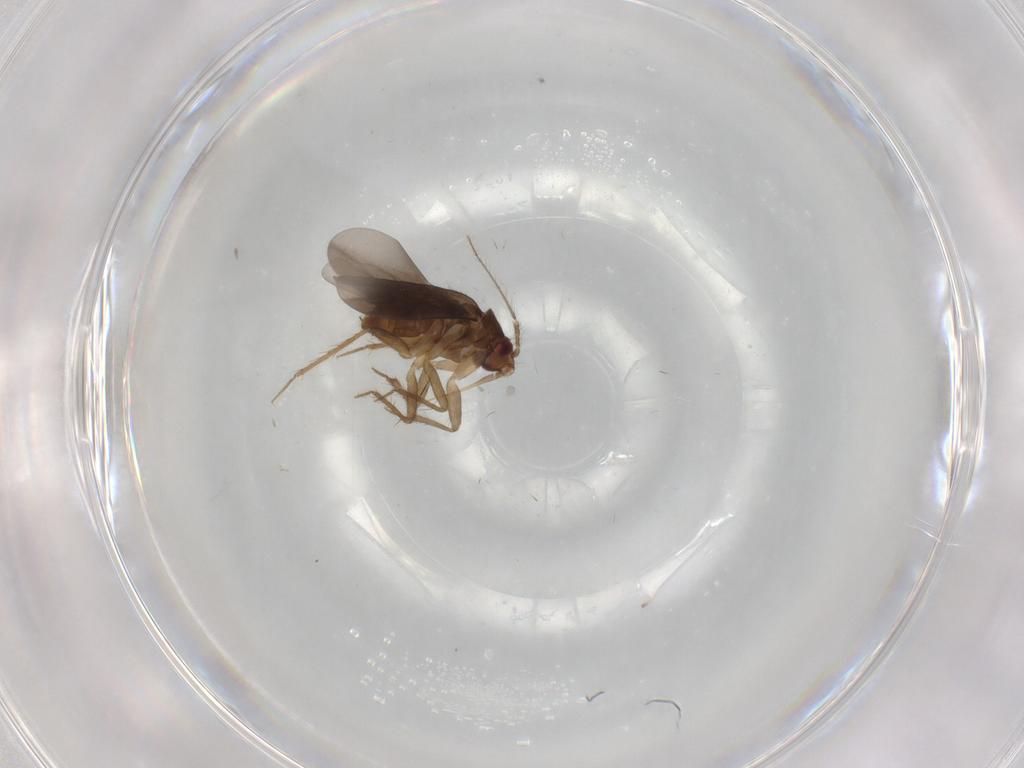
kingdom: Animalia
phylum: Arthropoda
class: Insecta
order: Hemiptera
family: Ceratocombidae
